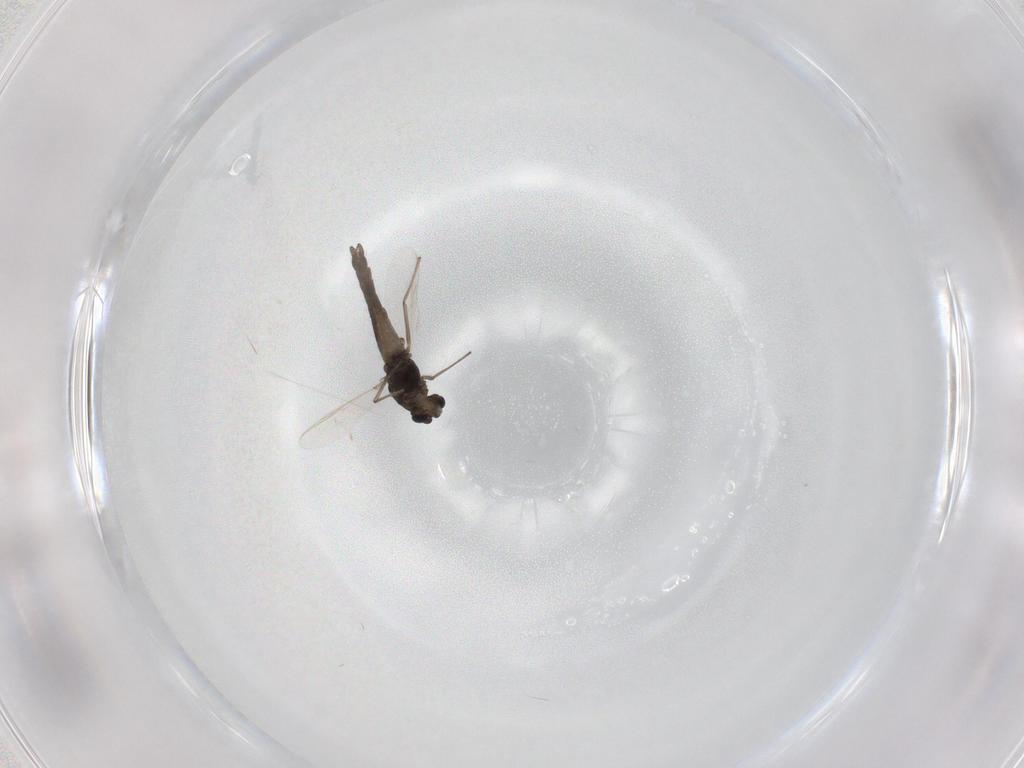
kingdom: Animalia
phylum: Arthropoda
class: Insecta
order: Diptera
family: Chironomidae
